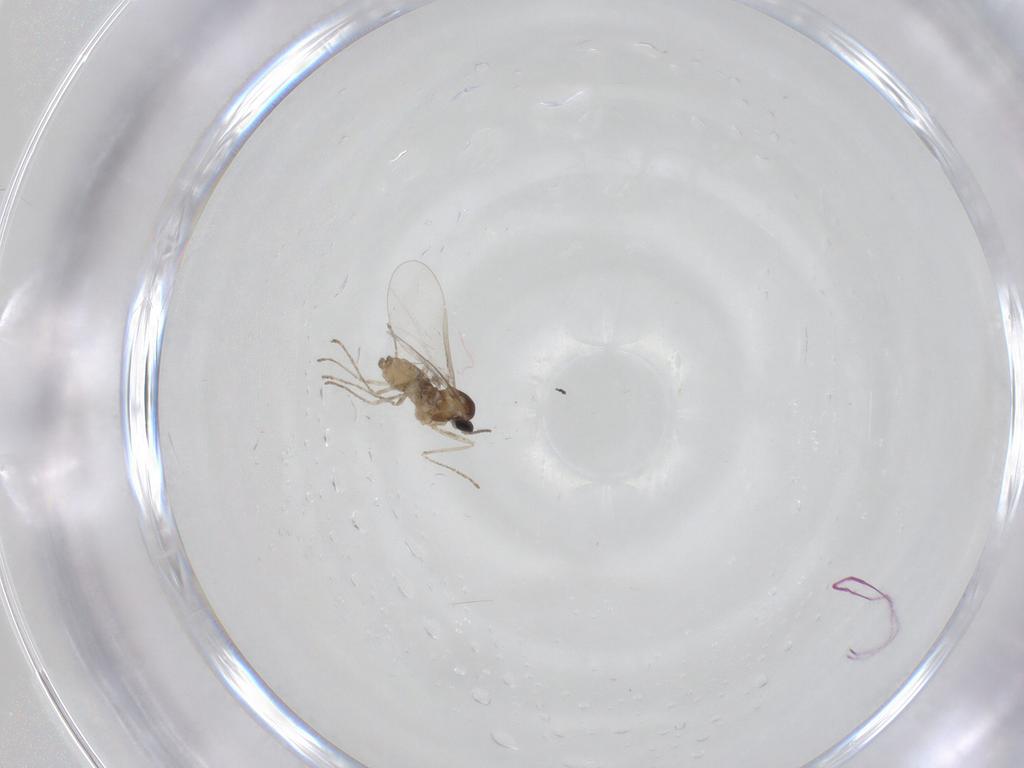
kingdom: Animalia
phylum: Arthropoda
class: Insecta
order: Diptera
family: Cecidomyiidae
